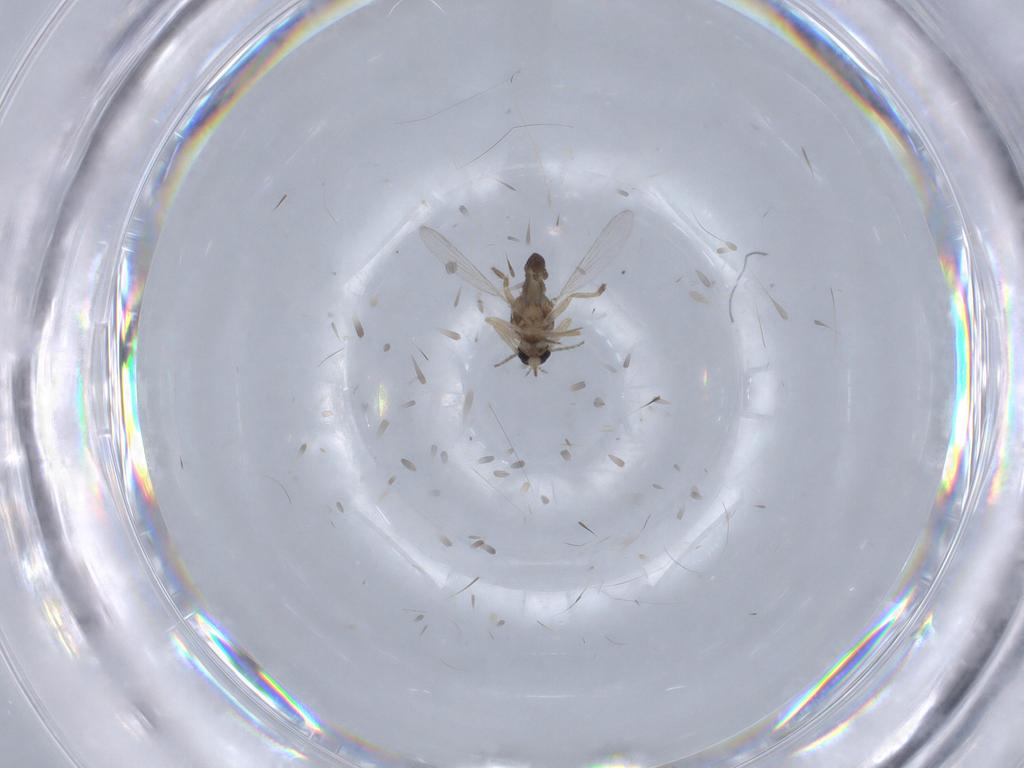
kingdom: Animalia
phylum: Arthropoda
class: Insecta
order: Diptera
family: Ceratopogonidae
